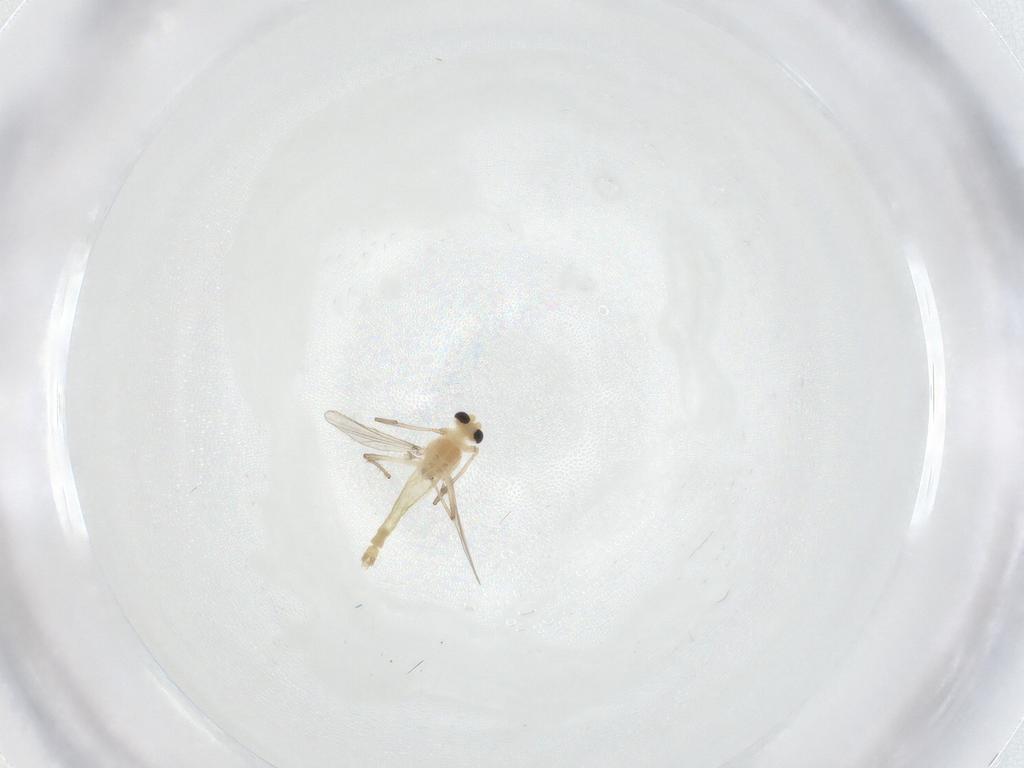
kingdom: Animalia
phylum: Arthropoda
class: Insecta
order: Diptera
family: Chironomidae
